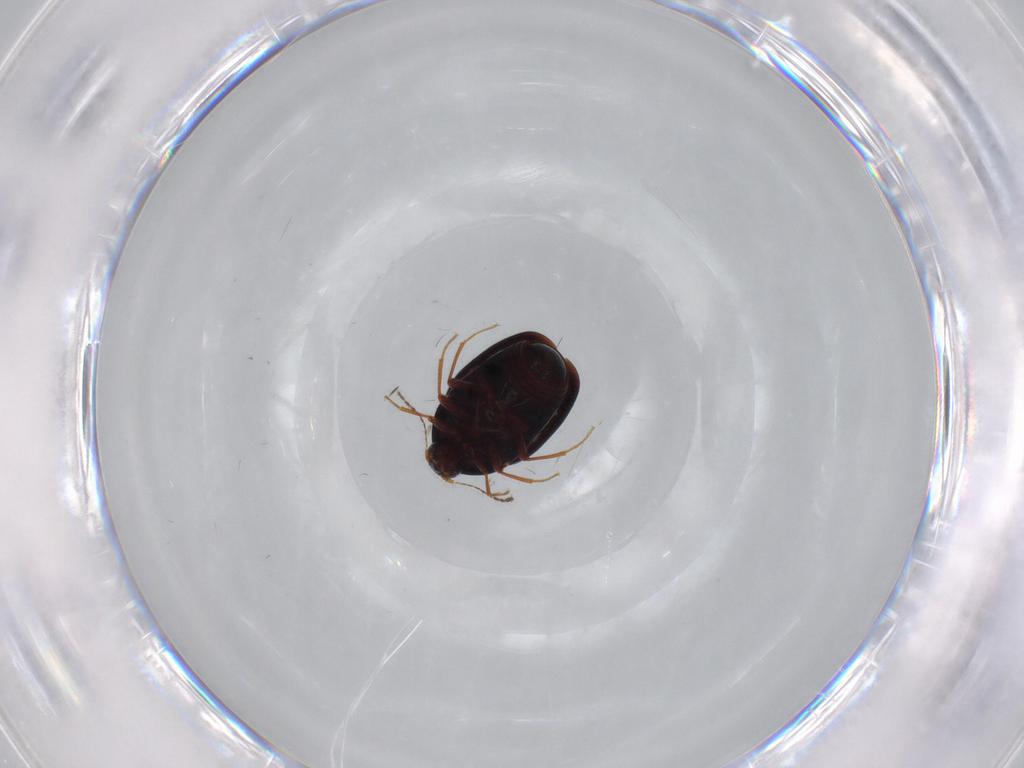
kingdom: Animalia
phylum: Arthropoda
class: Insecta
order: Coleoptera
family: Staphylinidae
